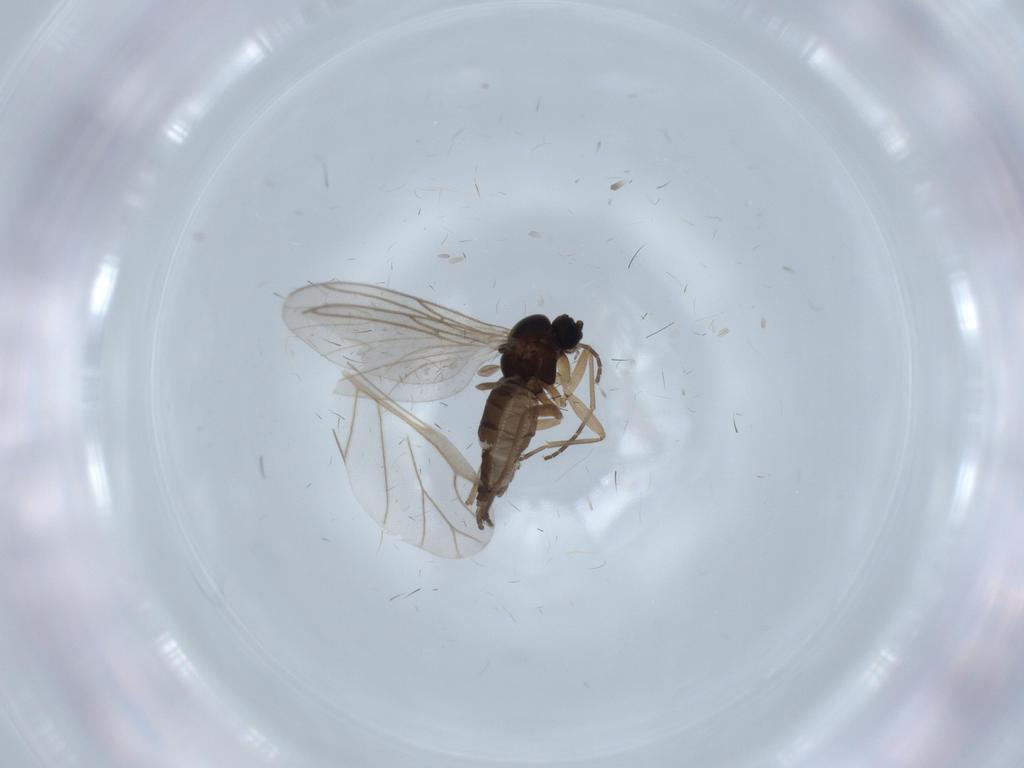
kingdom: Animalia
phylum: Arthropoda
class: Insecta
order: Diptera
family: Sciaridae
